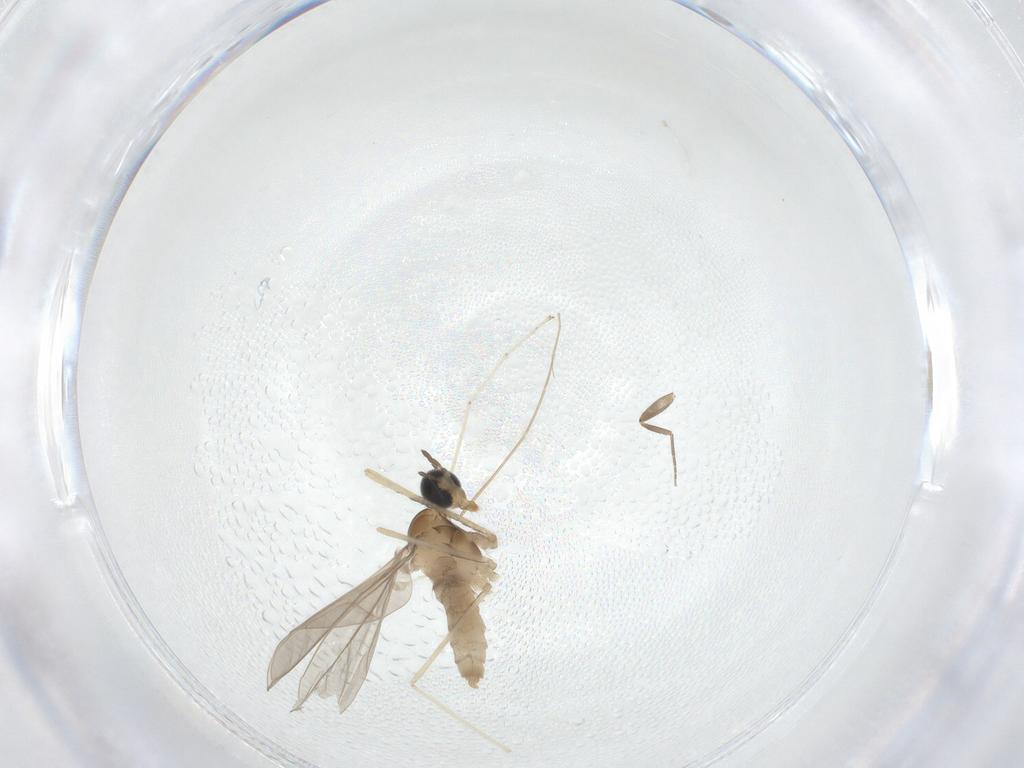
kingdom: Animalia
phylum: Arthropoda
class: Insecta
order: Diptera
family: Cecidomyiidae
